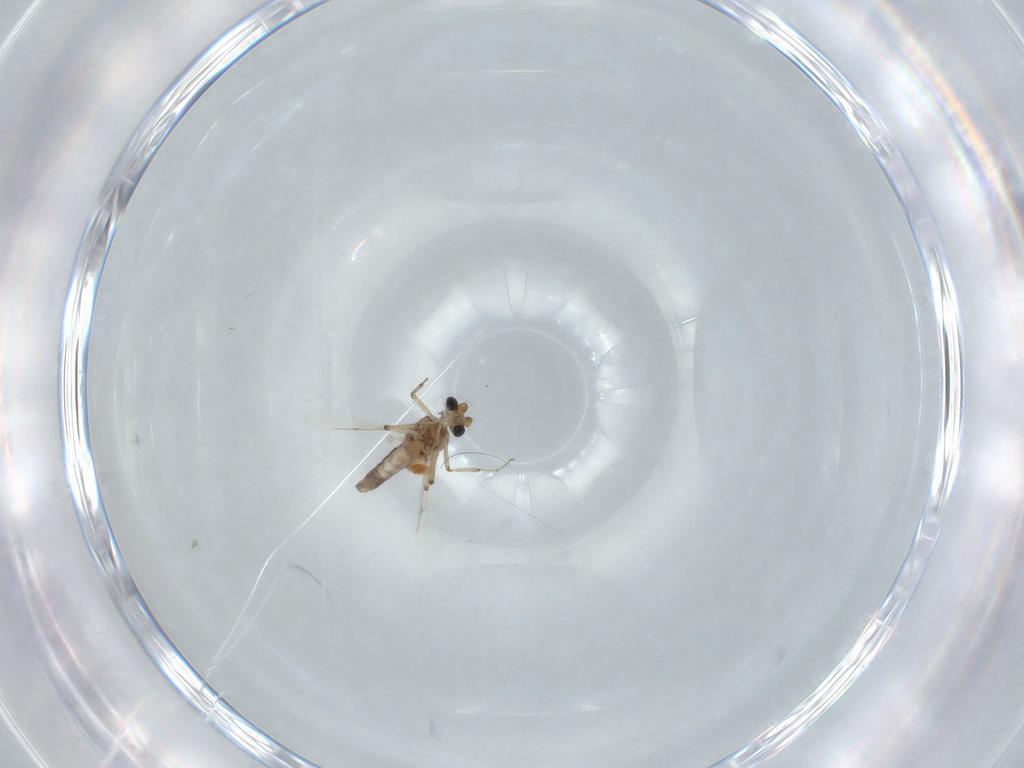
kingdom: Animalia
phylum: Arthropoda
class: Insecta
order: Diptera
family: Ceratopogonidae
